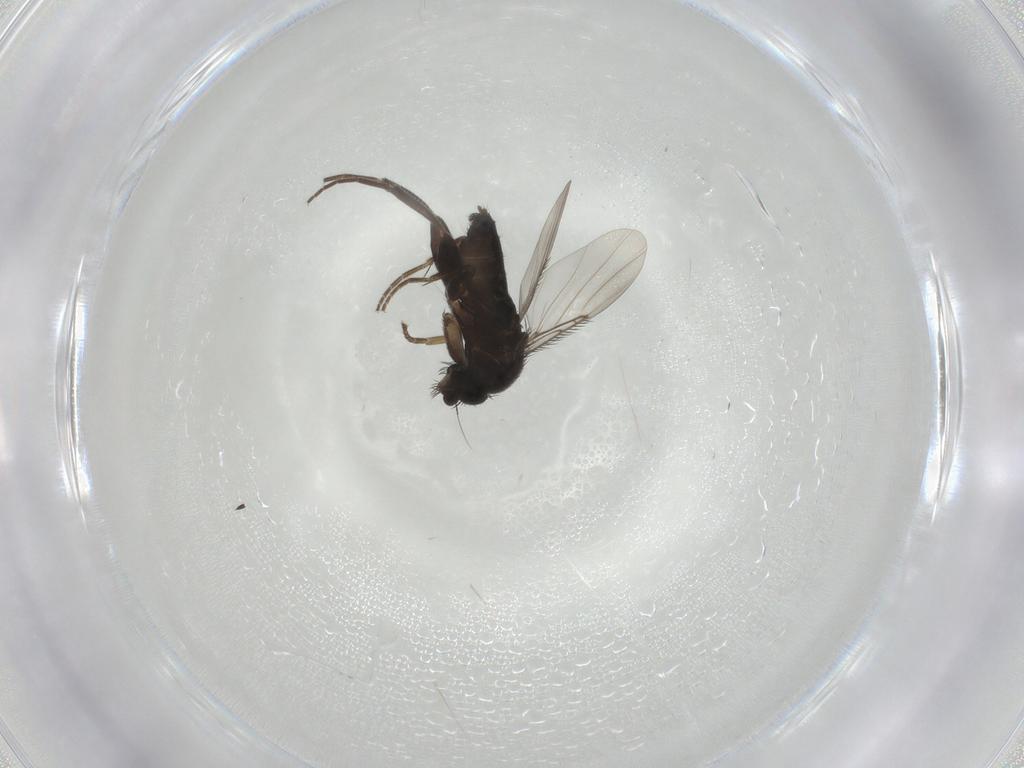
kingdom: Animalia
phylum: Arthropoda
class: Insecta
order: Diptera
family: Phoridae
